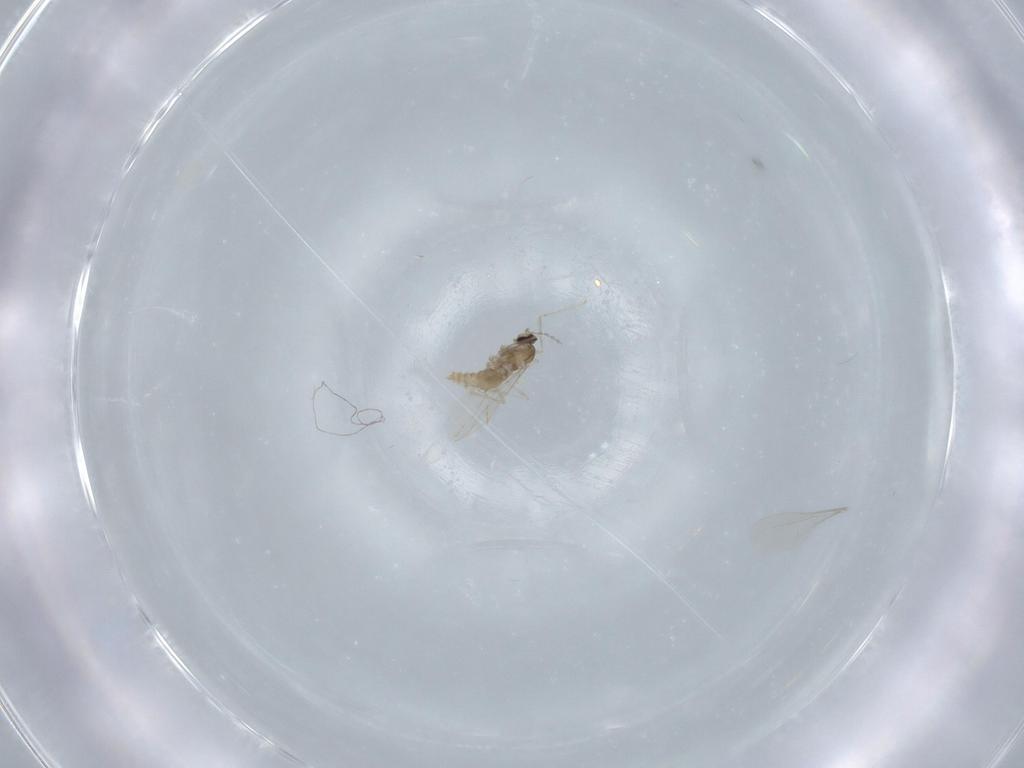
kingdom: Animalia
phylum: Arthropoda
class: Insecta
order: Diptera
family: Cecidomyiidae
